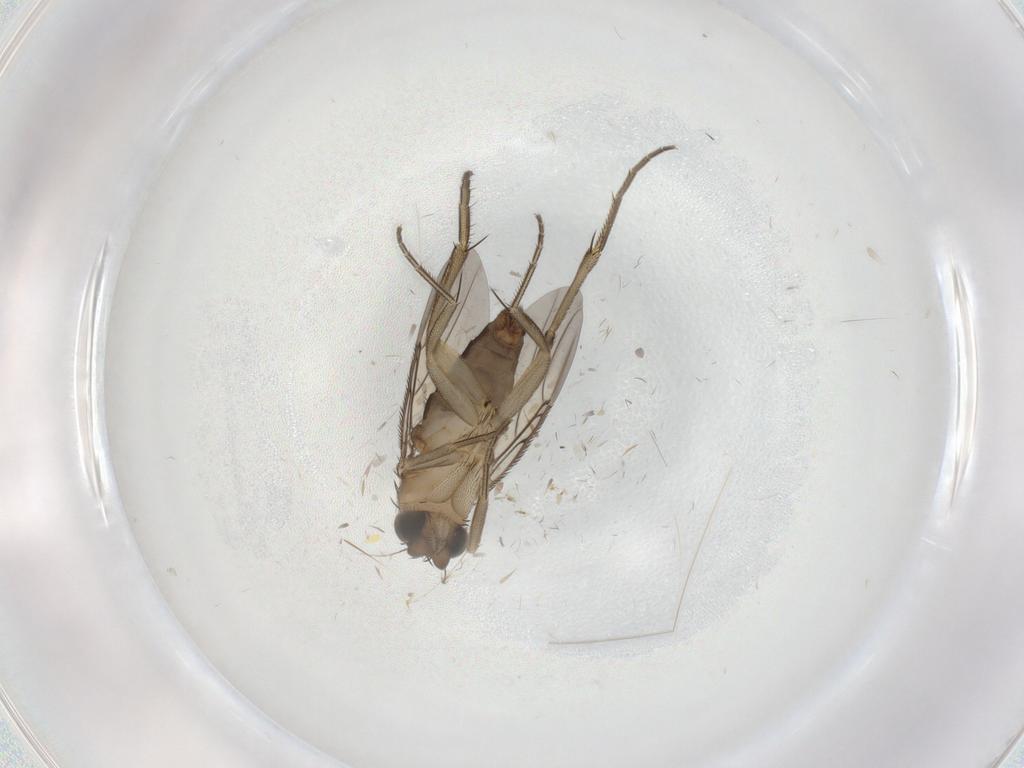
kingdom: Animalia
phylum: Arthropoda
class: Insecta
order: Diptera
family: Phoridae
